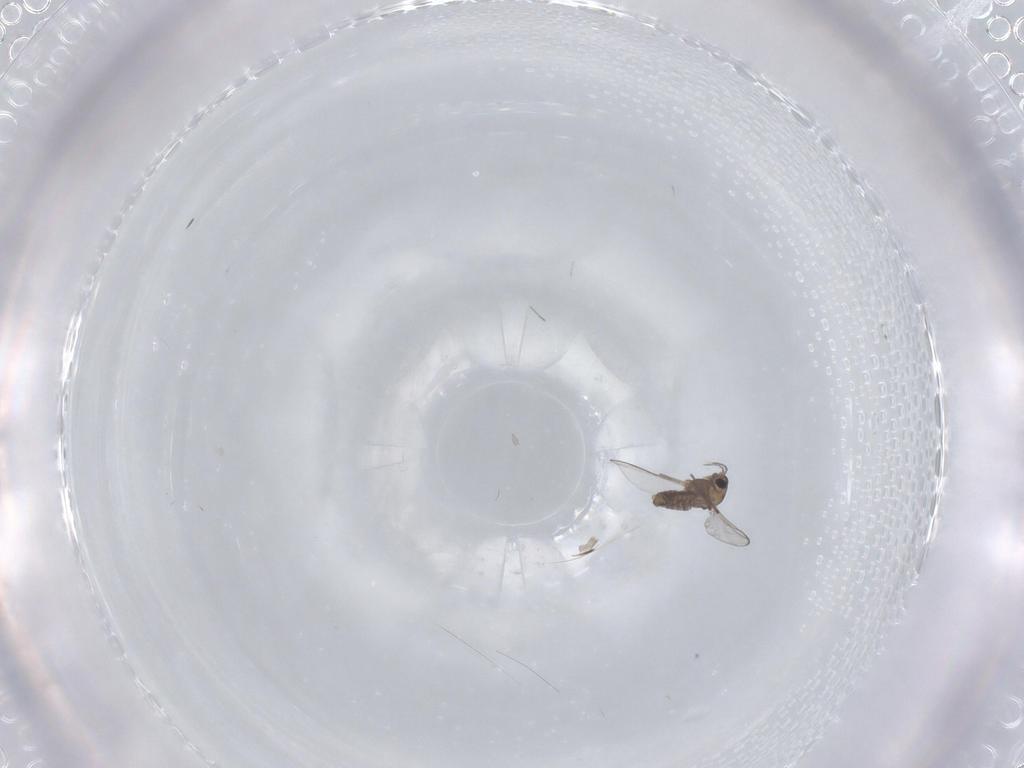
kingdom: Animalia
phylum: Arthropoda
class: Insecta
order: Diptera
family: Chironomidae
